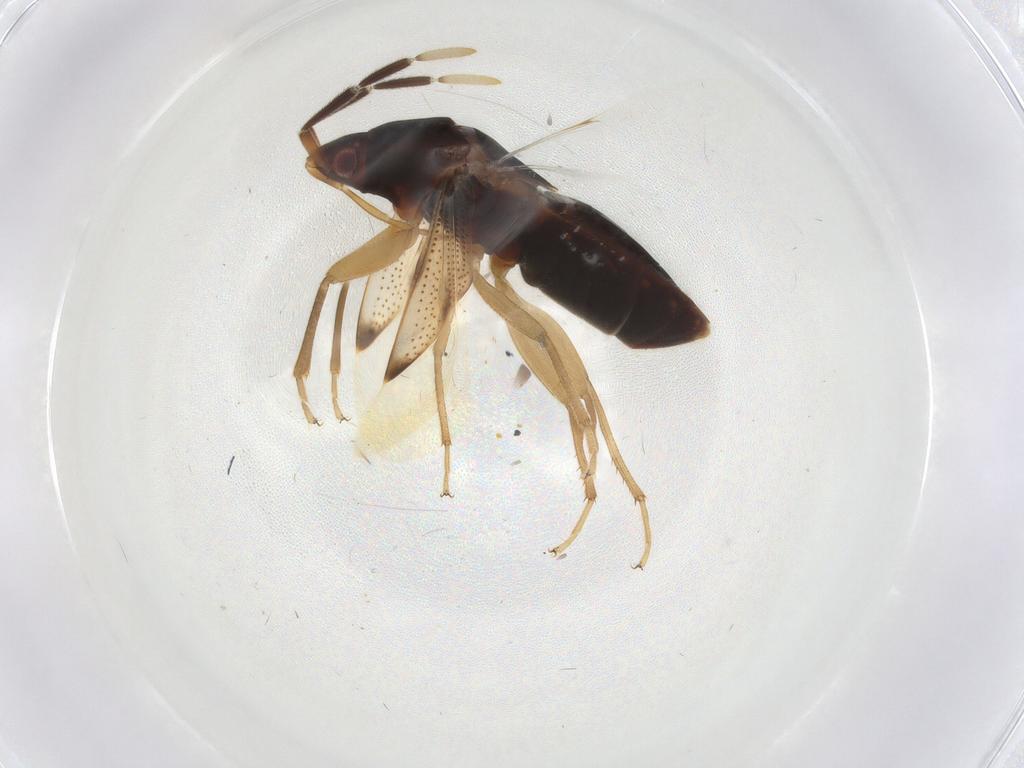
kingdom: Animalia
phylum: Arthropoda
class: Insecta
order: Hemiptera
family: Rhyparochromidae
